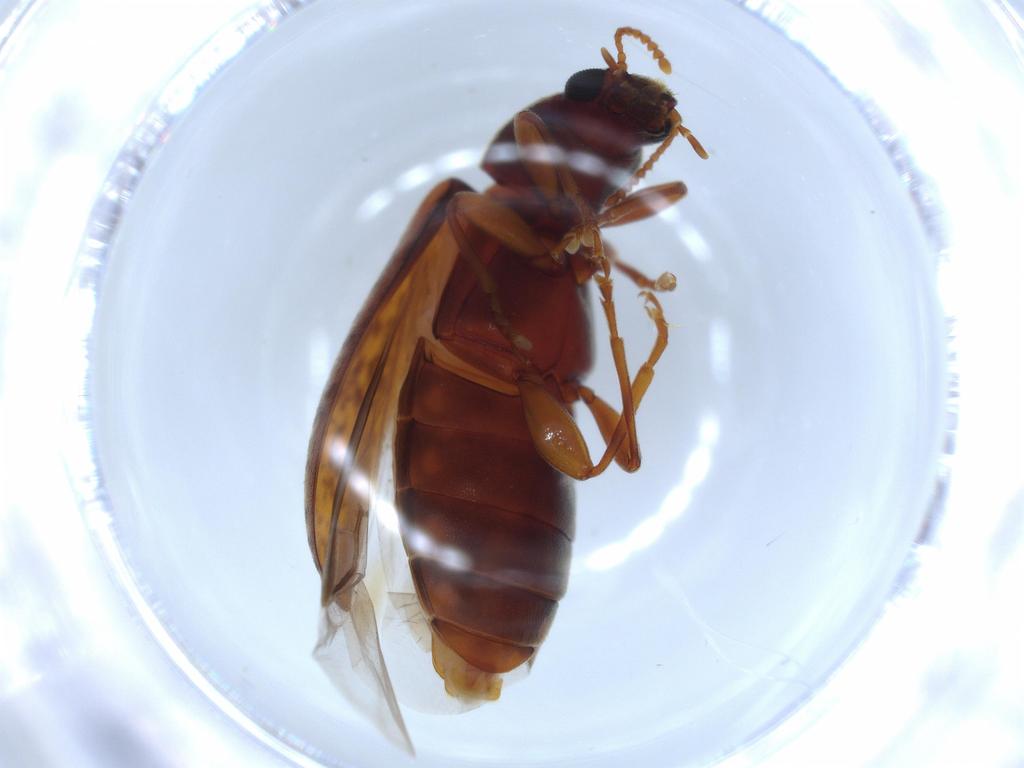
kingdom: Animalia
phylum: Arthropoda
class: Insecta
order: Coleoptera
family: Mycteridae
